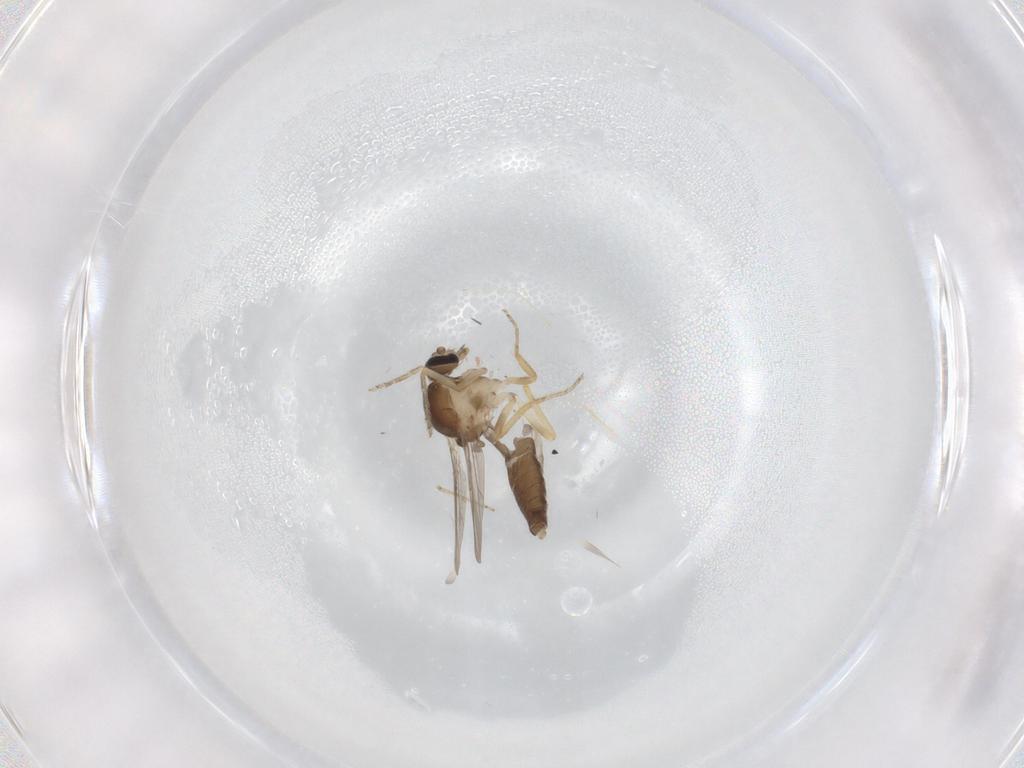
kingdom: Animalia
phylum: Arthropoda
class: Insecta
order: Diptera
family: Ceratopogonidae
